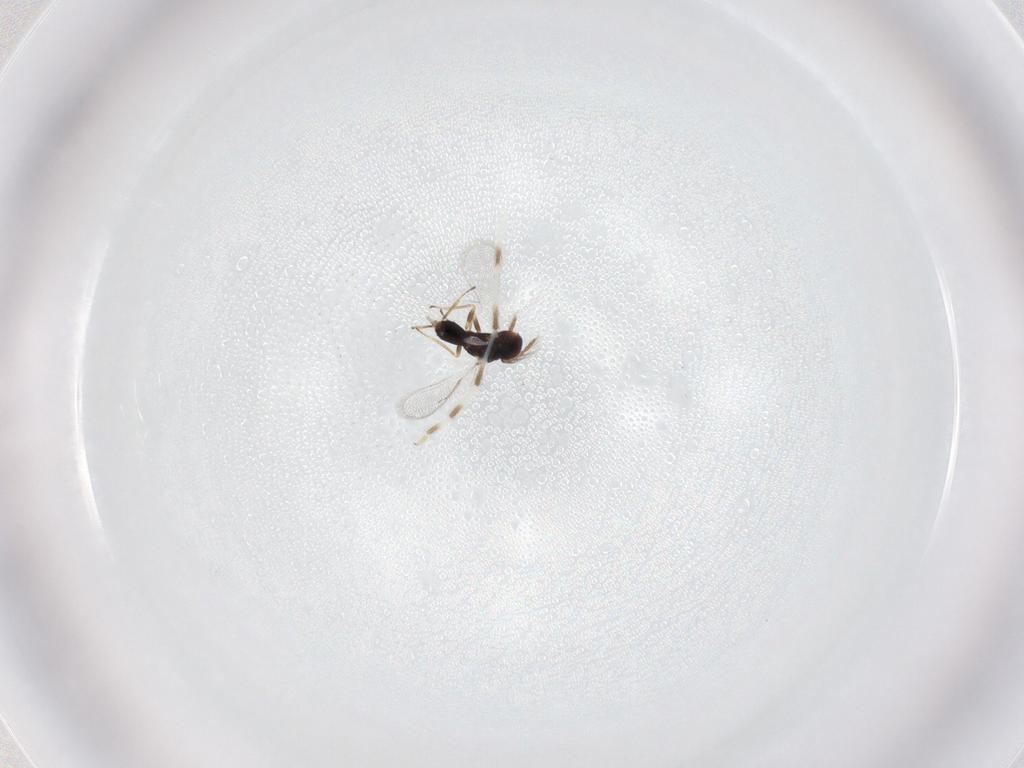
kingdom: Animalia
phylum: Arthropoda
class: Insecta
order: Hymenoptera
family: Eulophidae
